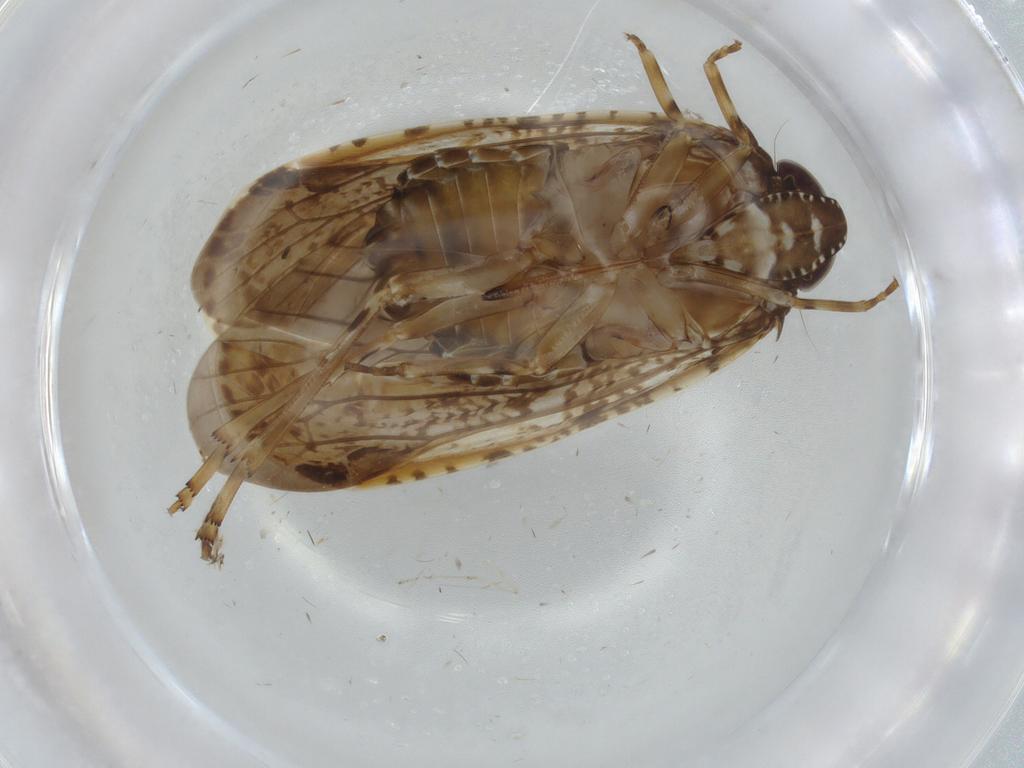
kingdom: Animalia
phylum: Arthropoda
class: Insecta
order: Hemiptera
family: Achilidae
